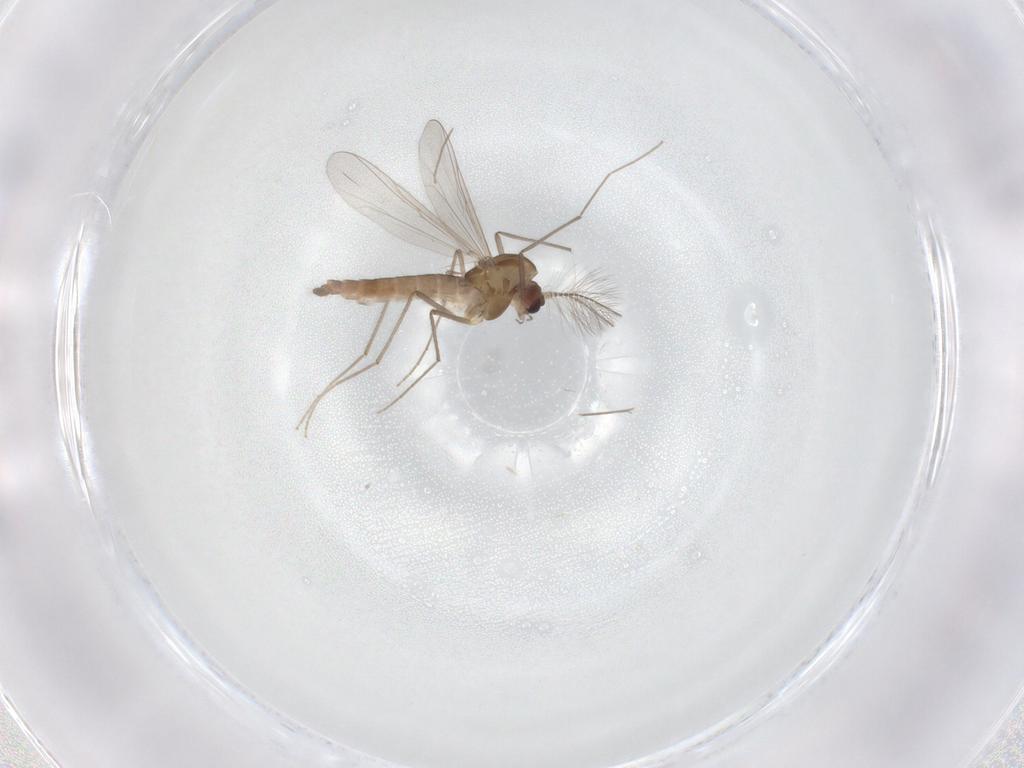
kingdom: Animalia
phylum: Arthropoda
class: Insecta
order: Diptera
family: Chironomidae
